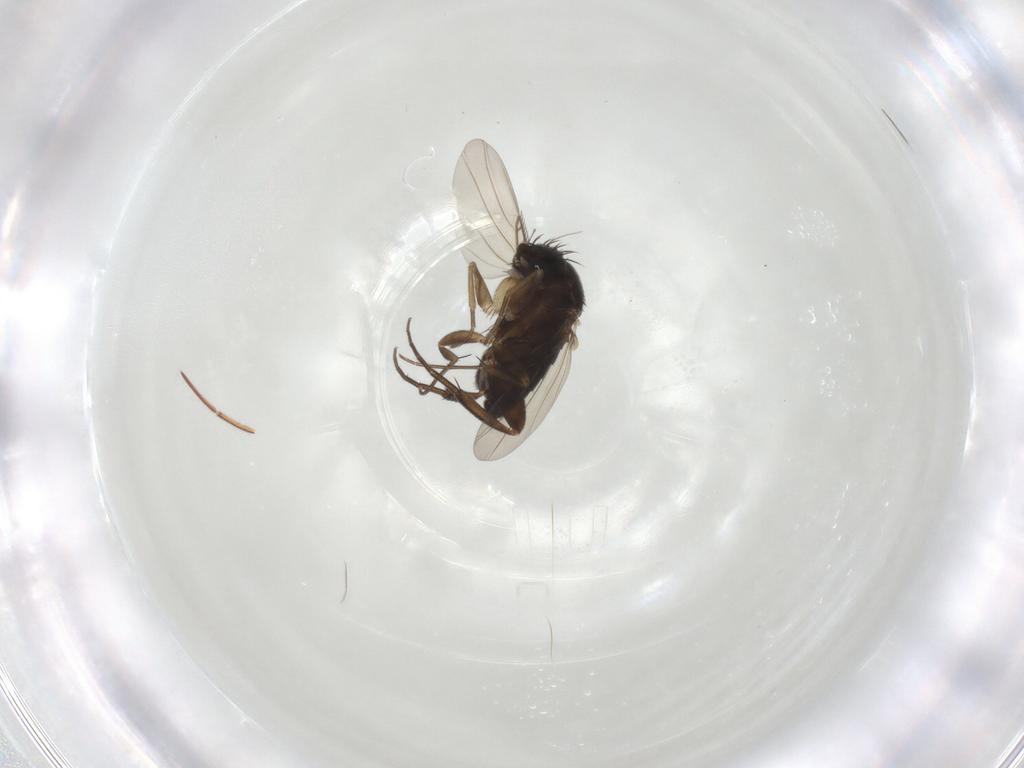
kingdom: Animalia
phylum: Arthropoda
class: Insecta
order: Diptera
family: Phoridae
